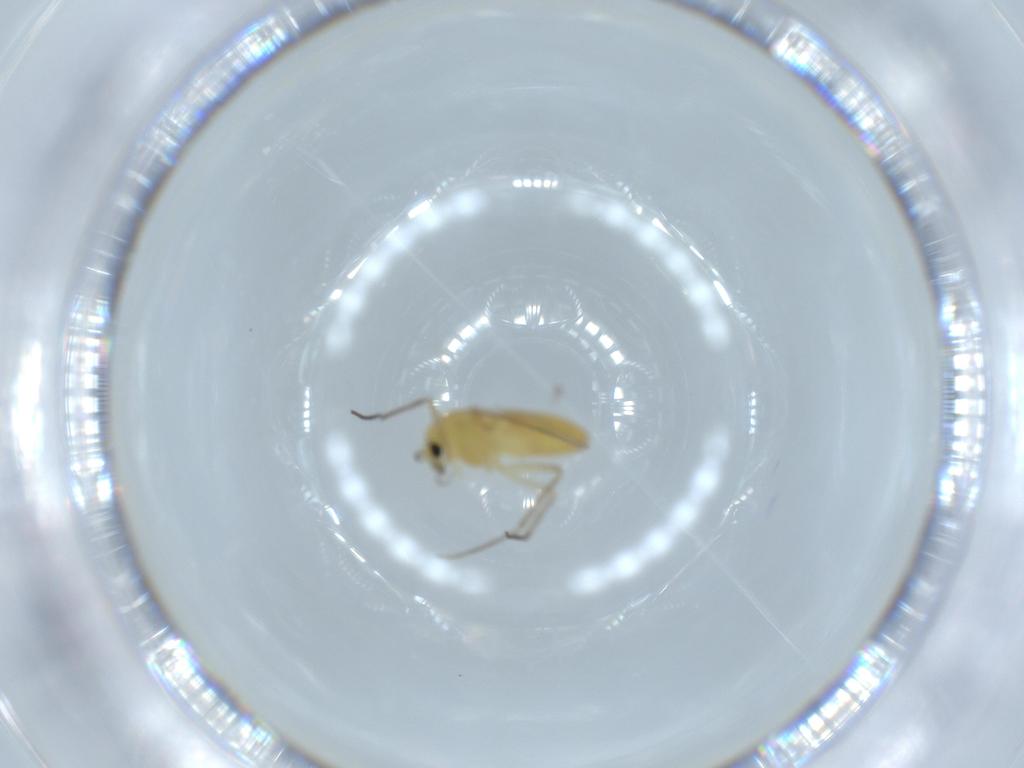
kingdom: Animalia
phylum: Arthropoda
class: Insecta
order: Diptera
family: Chironomidae
